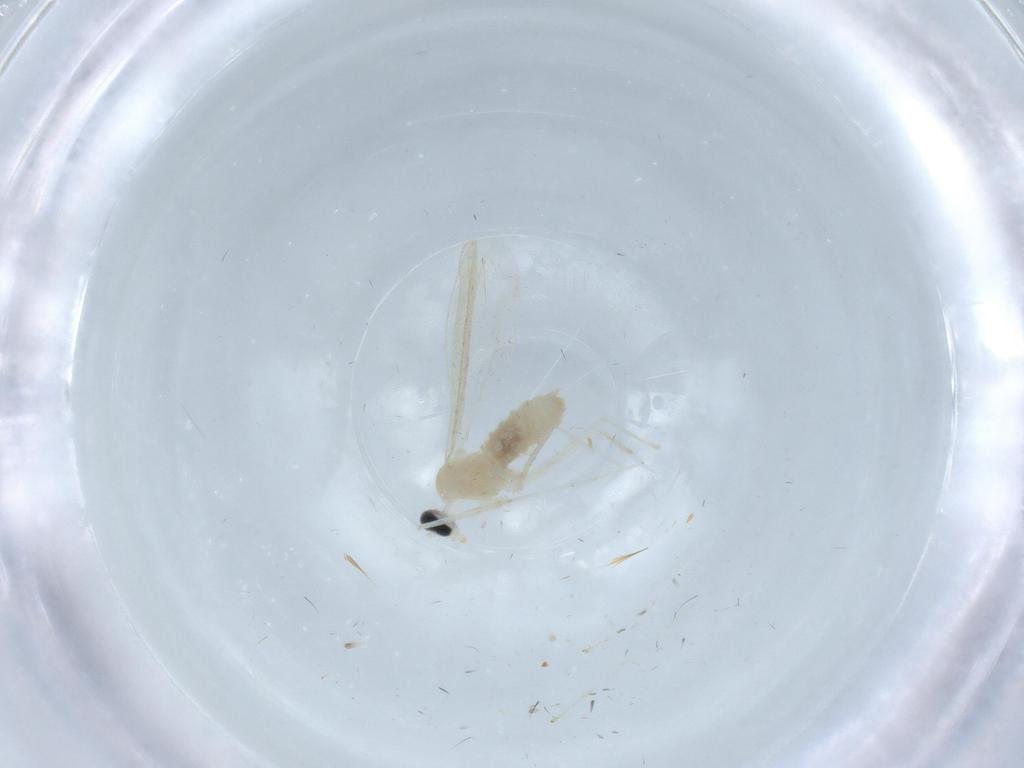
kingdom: Animalia
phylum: Arthropoda
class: Insecta
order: Diptera
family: Cecidomyiidae
